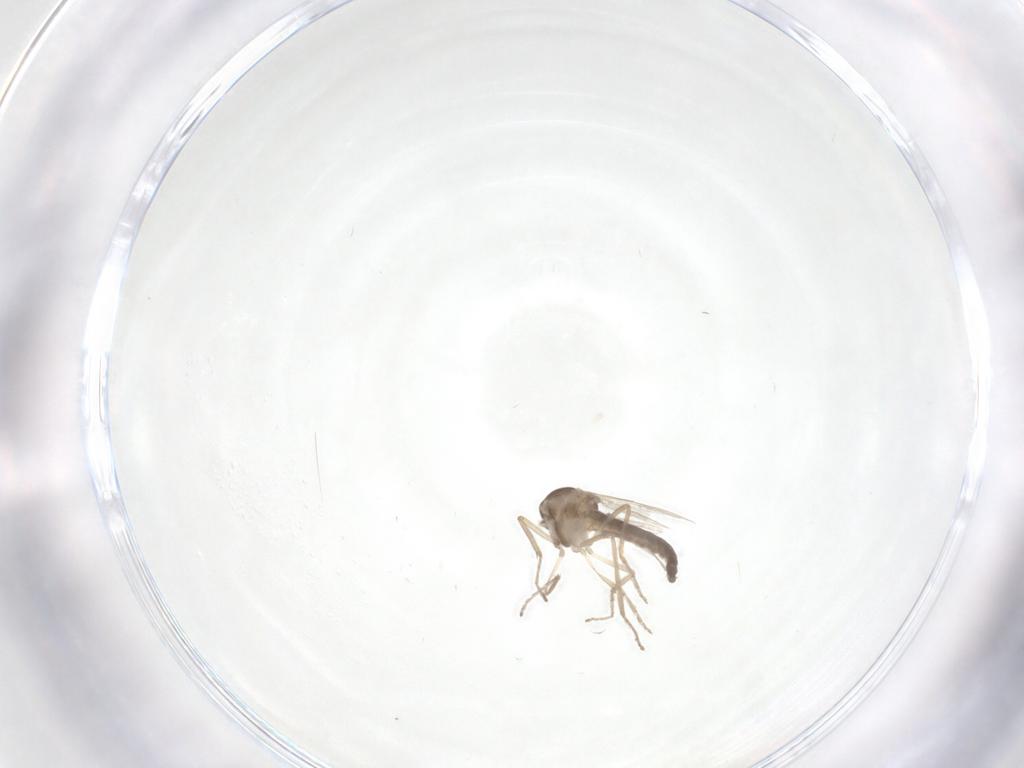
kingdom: Animalia
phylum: Arthropoda
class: Insecta
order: Diptera
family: Ceratopogonidae
